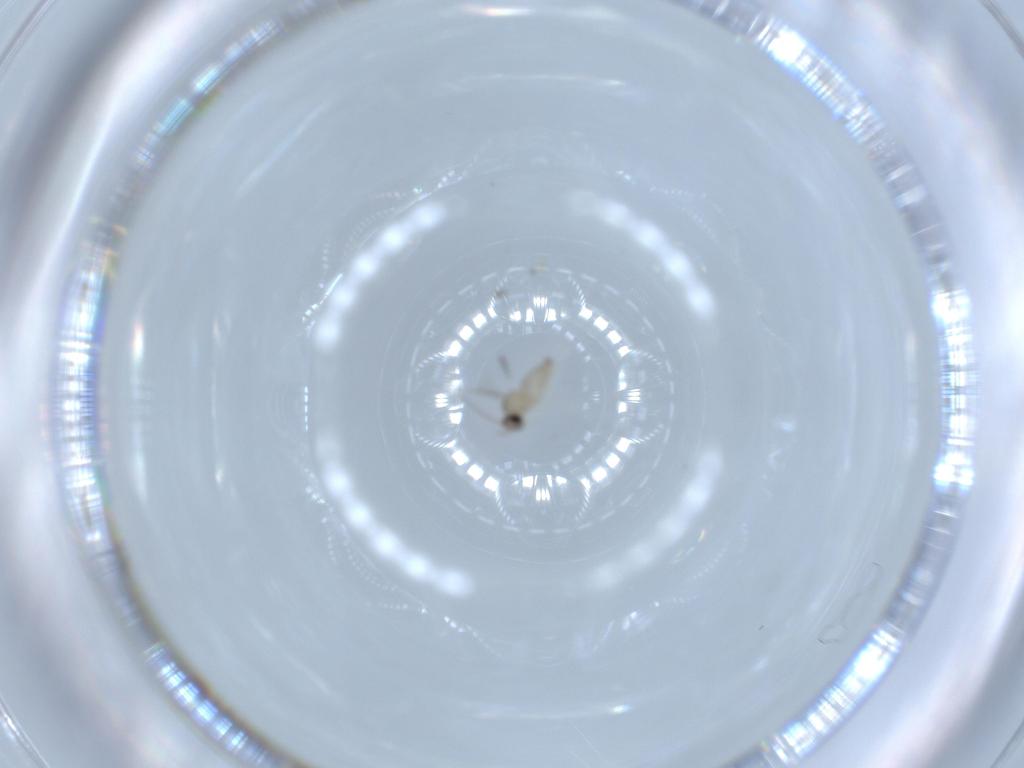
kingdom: Animalia
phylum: Arthropoda
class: Insecta
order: Diptera
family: Cecidomyiidae
